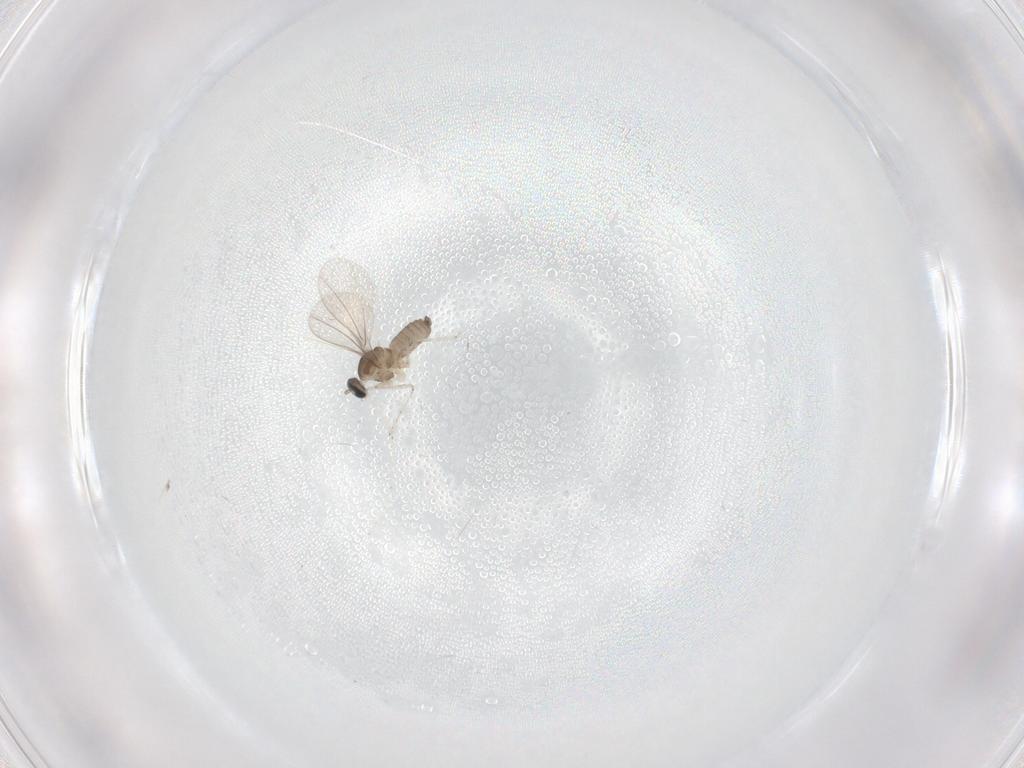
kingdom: Animalia
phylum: Arthropoda
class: Insecta
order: Diptera
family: Cecidomyiidae
